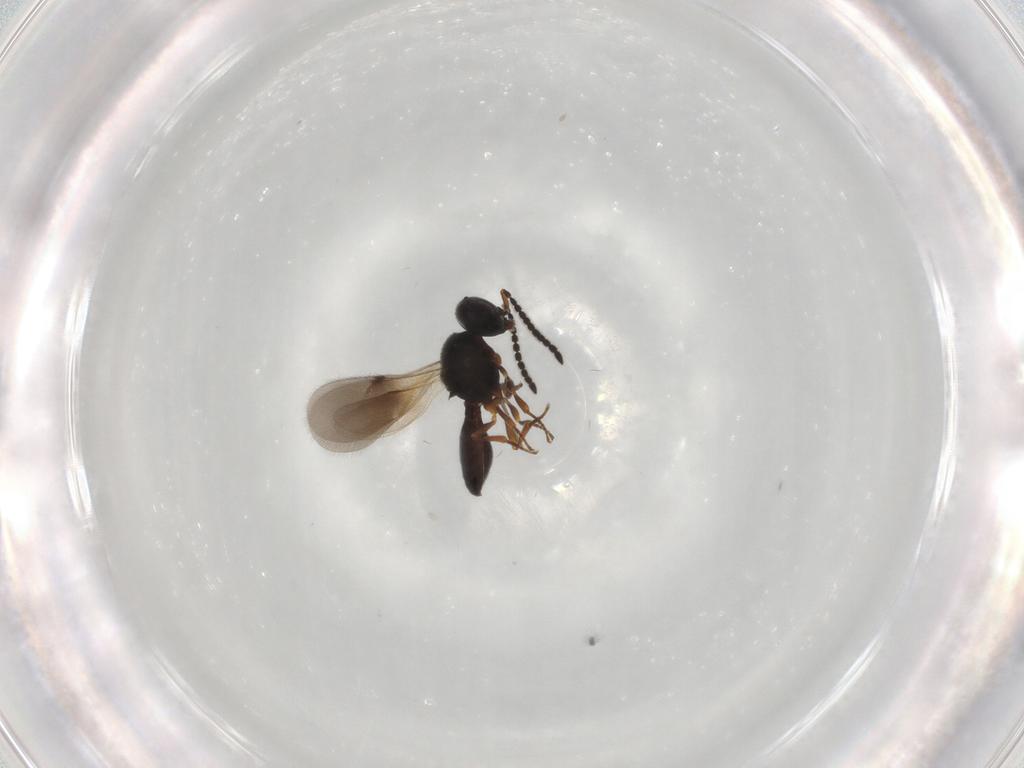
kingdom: Animalia
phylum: Arthropoda
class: Insecta
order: Hymenoptera
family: Scelionidae
